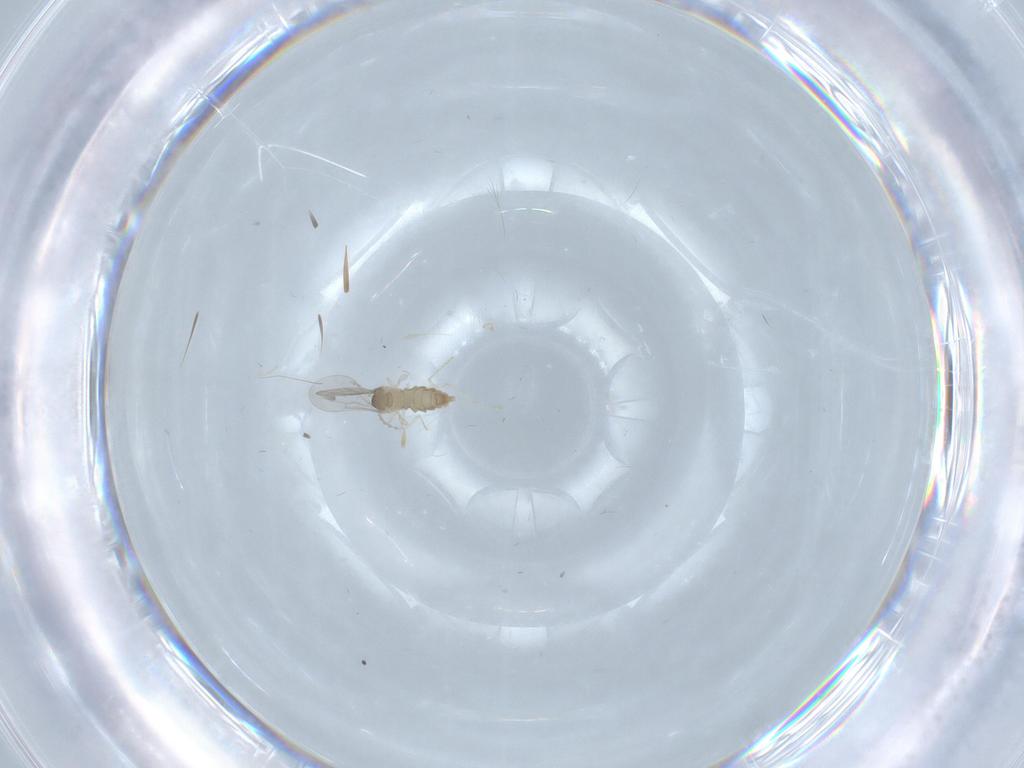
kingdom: Animalia
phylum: Arthropoda
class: Insecta
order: Diptera
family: Cecidomyiidae
